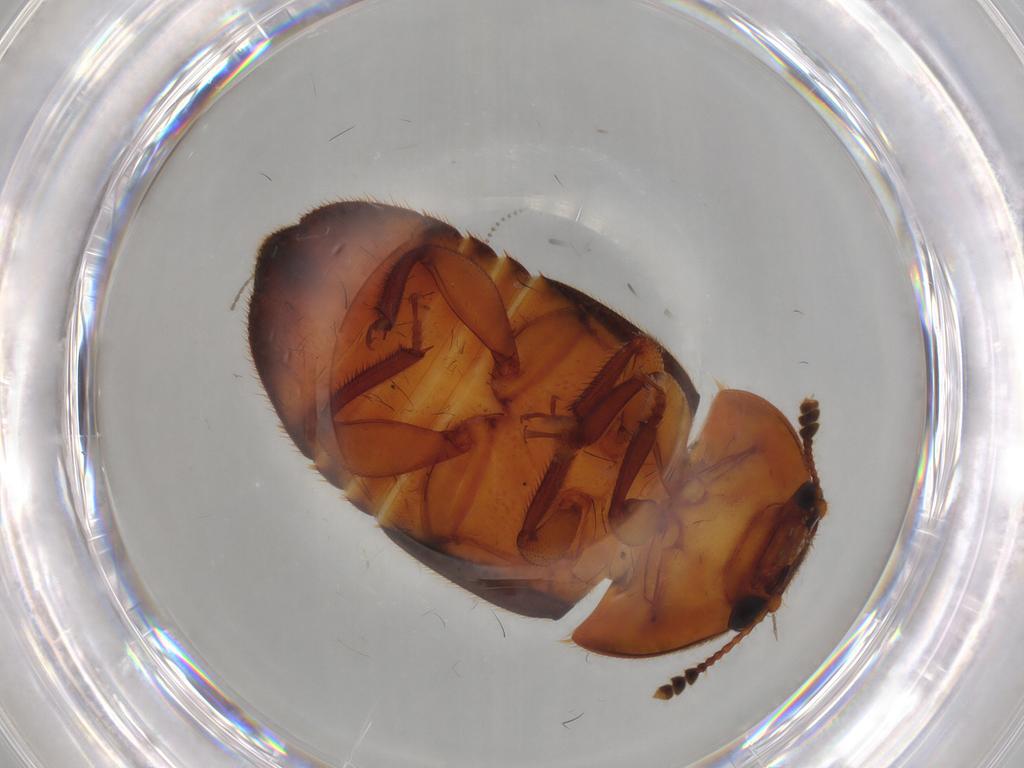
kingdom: Animalia
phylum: Arthropoda
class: Insecta
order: Coleoptera
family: Nitidulidae
